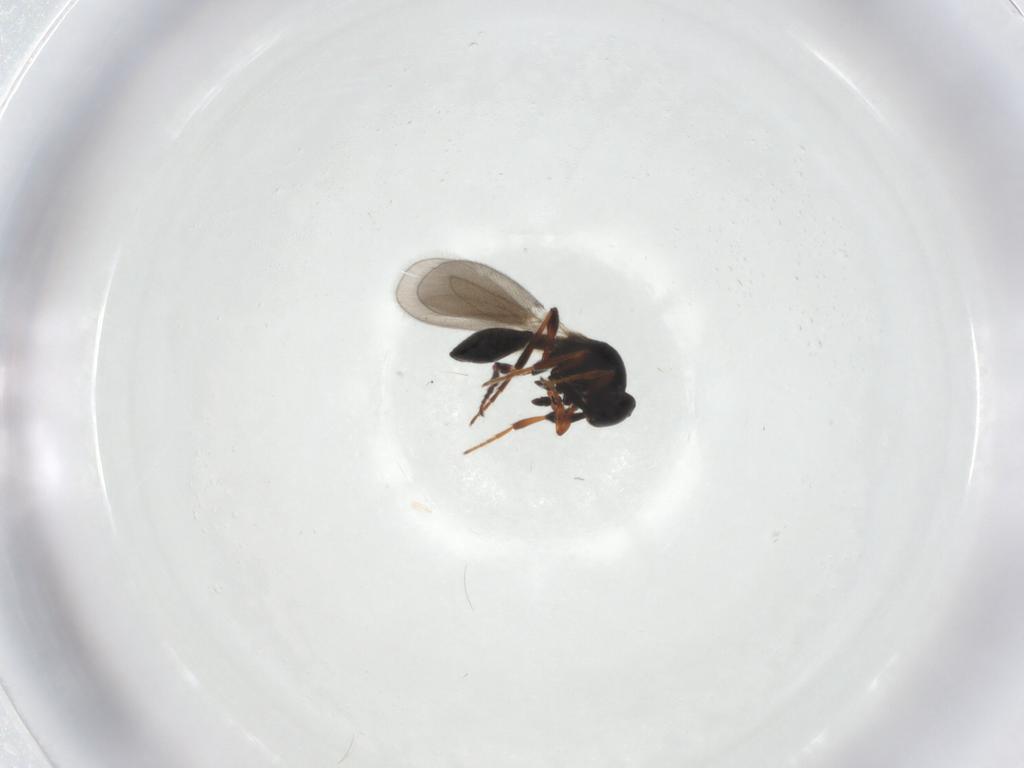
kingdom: Animalia
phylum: Arthropoda
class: Insecta
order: Hymenoptera
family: Platygastridae
